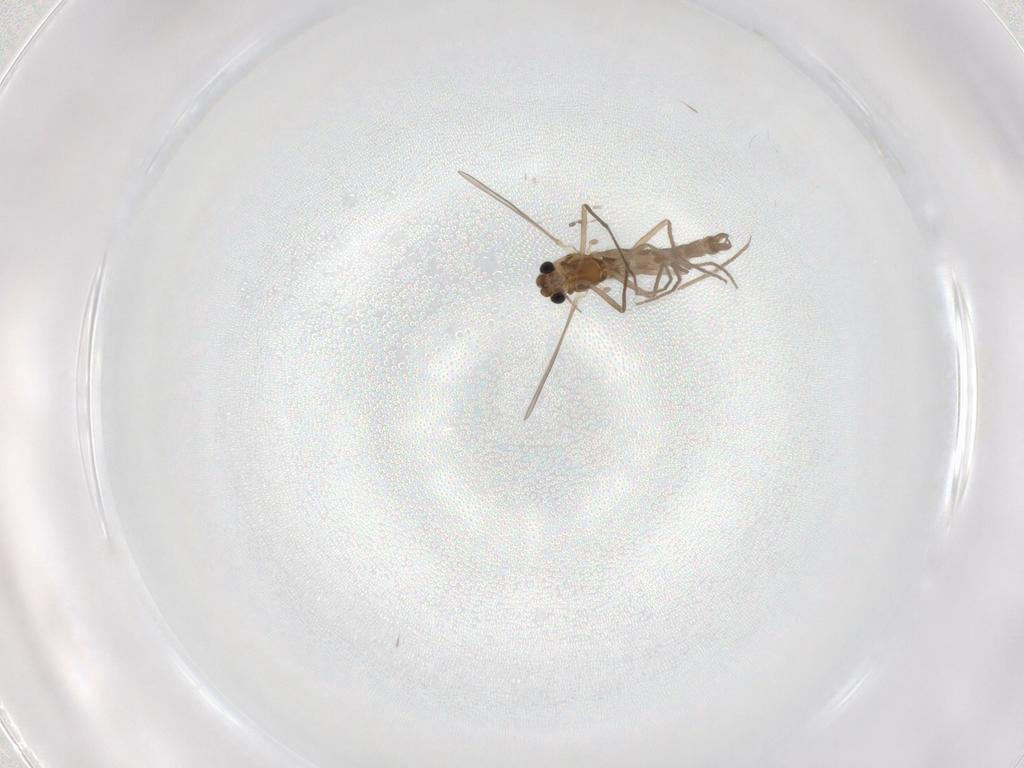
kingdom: Animalia
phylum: Arthropoda
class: Insecta
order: Diptera
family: Chironomidae
